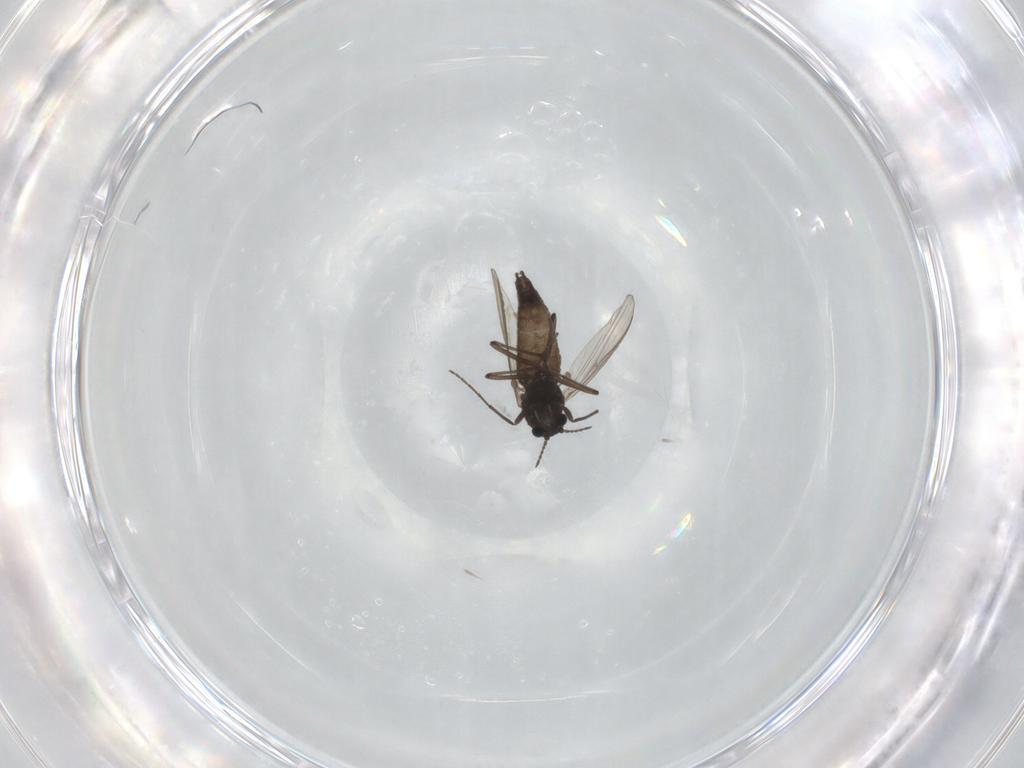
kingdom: Animalia
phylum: Arthropoda
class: Insecta
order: Diptera
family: Chironomidae
